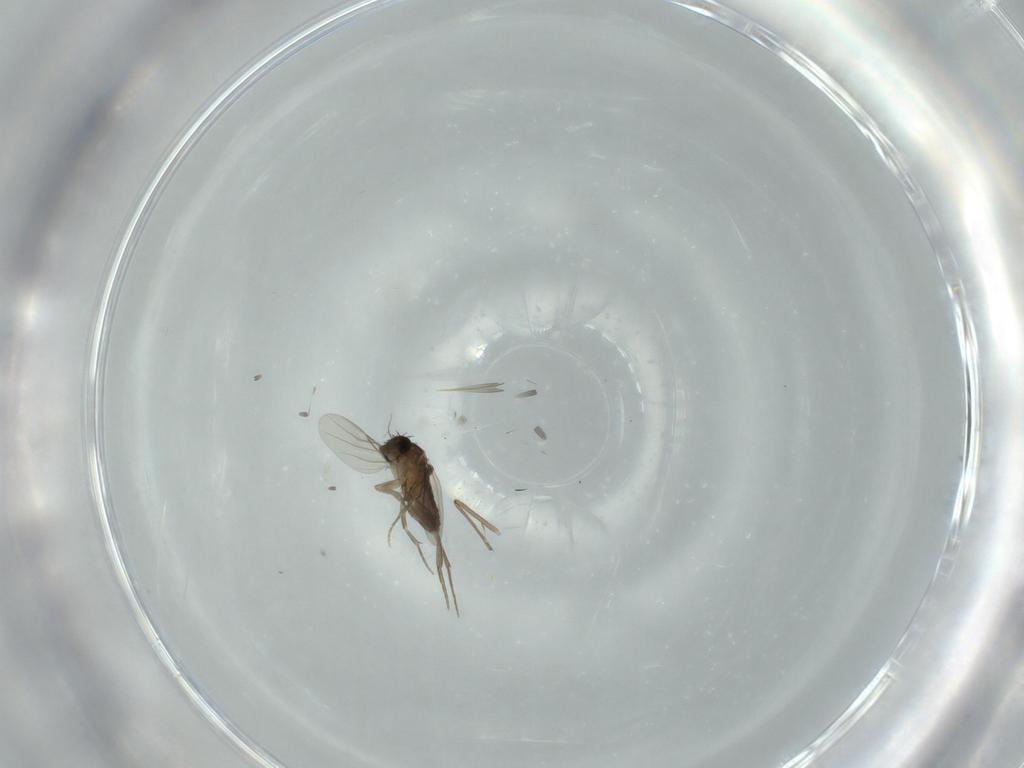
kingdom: Animalia
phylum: Arthropoda
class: Insecta
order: Diptera
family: Phoridae
